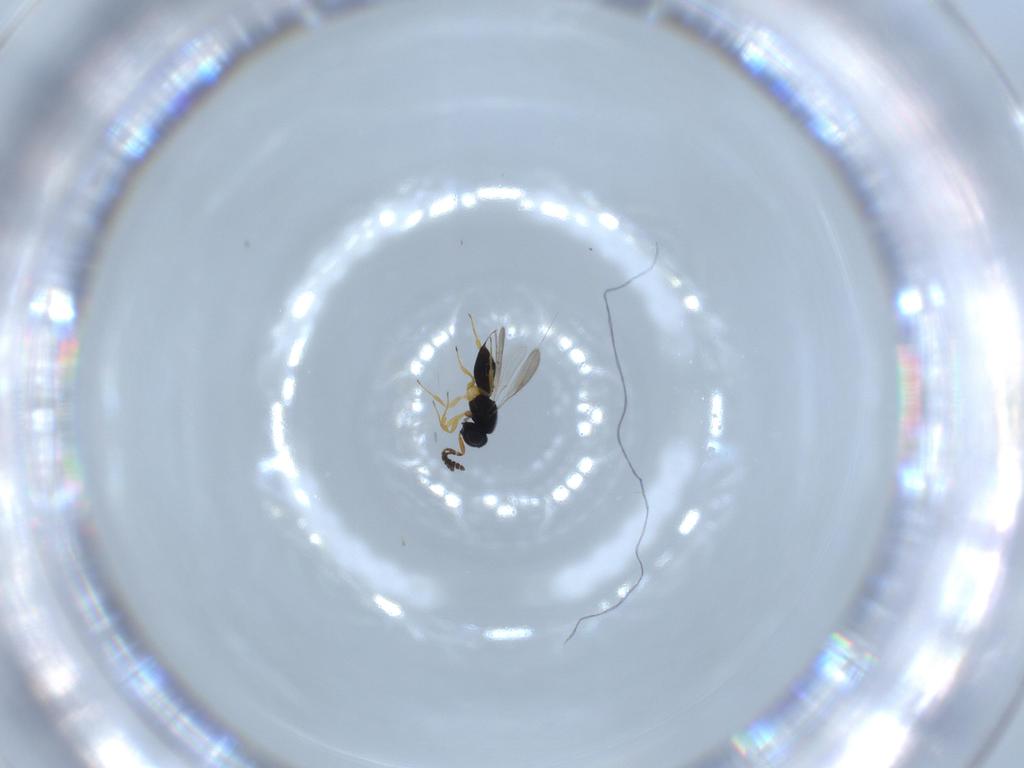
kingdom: Animalia
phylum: Arthropoda
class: Insecta
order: Hymenoptera
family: Scelionidae
